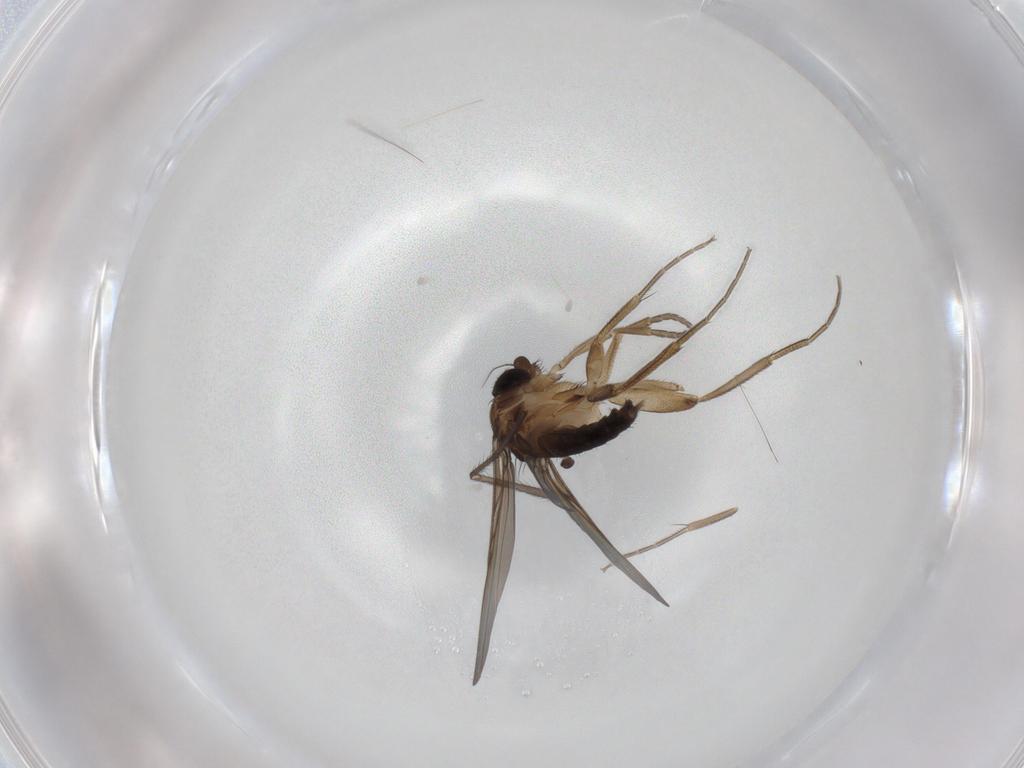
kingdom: Animalia
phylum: Arthropoda
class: Insecta
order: Diptera
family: Phoridae
